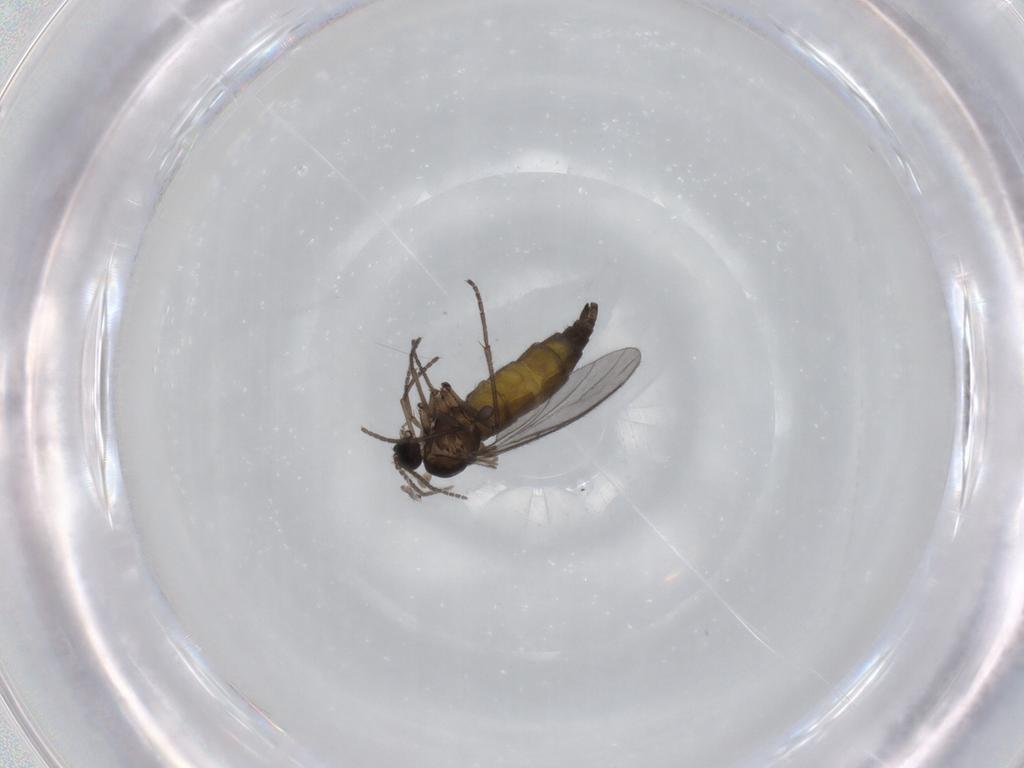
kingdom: Animalia
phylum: Arthropoda
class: Insecta
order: Diptera
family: Sciaridae
